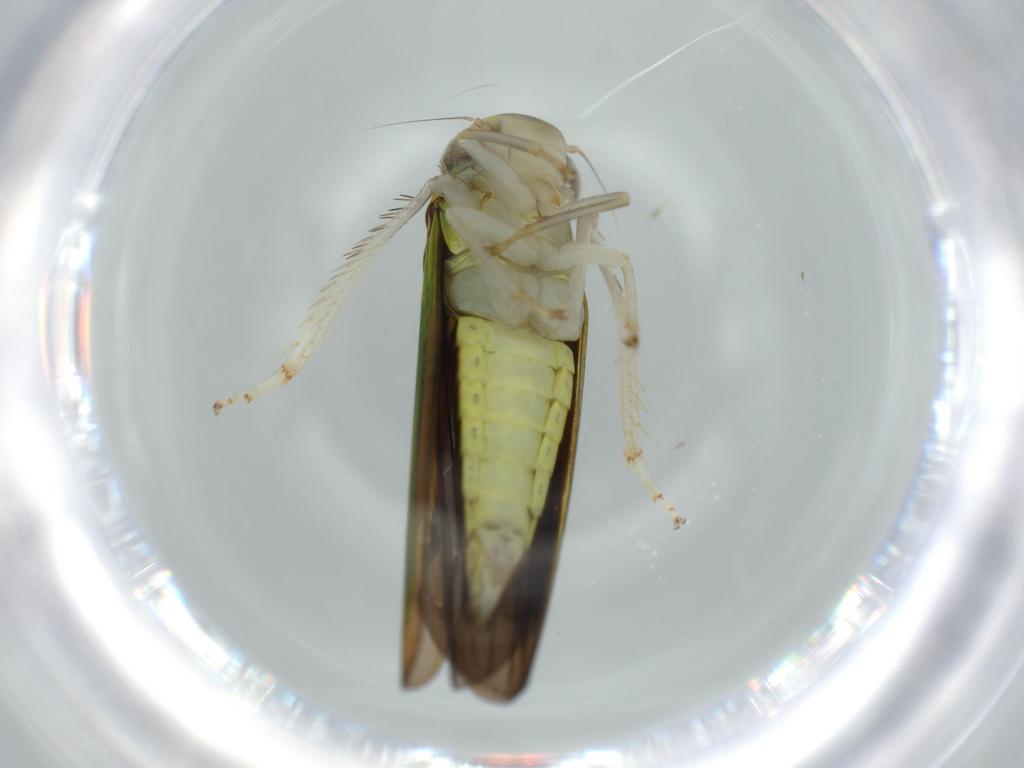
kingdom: Animalia
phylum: Arthropoda
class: Insecta
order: Hemiptera
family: Cicadellidae
